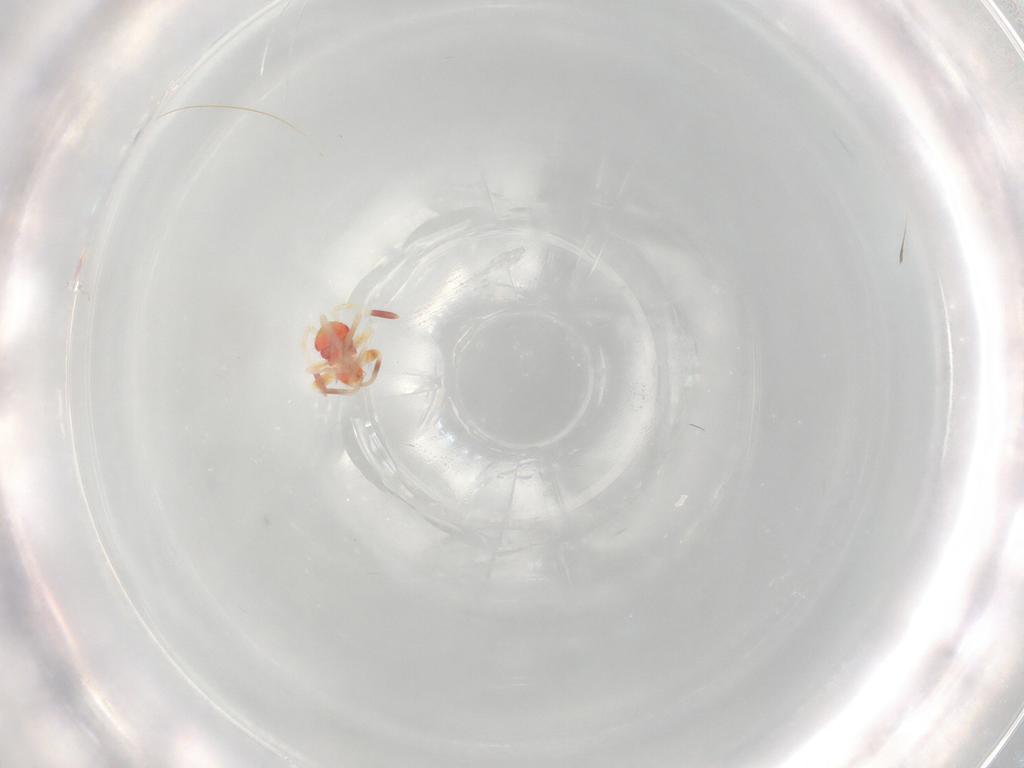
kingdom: Animalia
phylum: Arthropoda
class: Insecta
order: Hemiptera
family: Miridae
